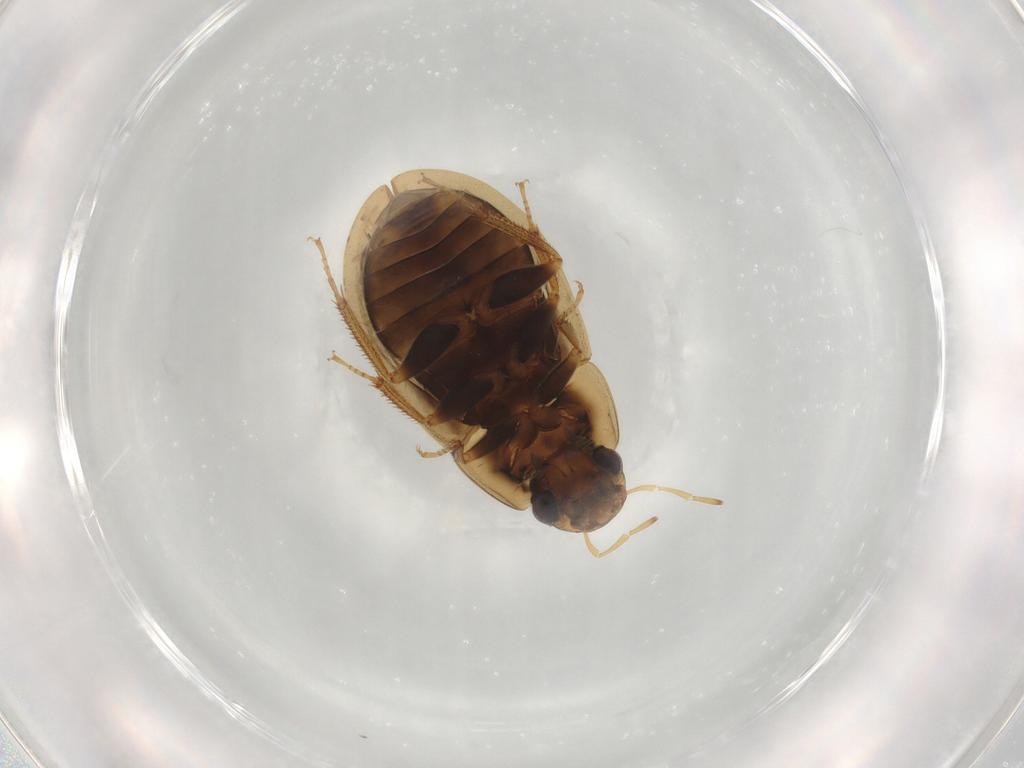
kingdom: Animalia
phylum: Arthropoda
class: Insecta
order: Coleoptera
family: Hydrophilidae
